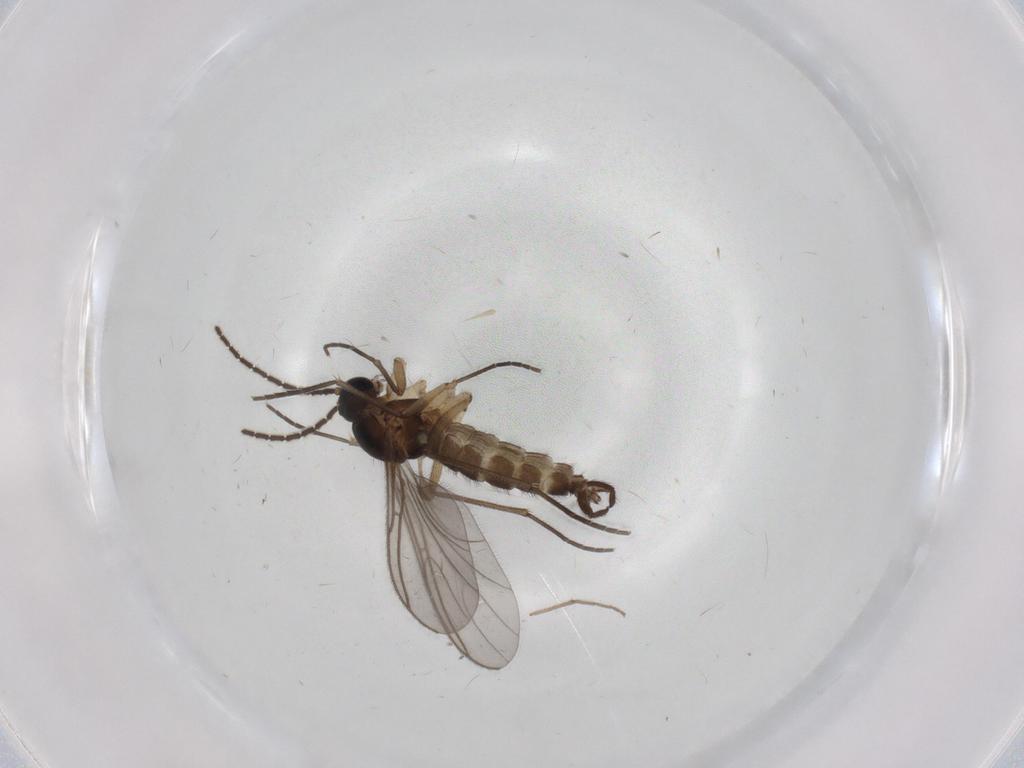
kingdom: Animalia
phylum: Arthropoda
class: Insecta
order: Diptera
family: Sciaridae
